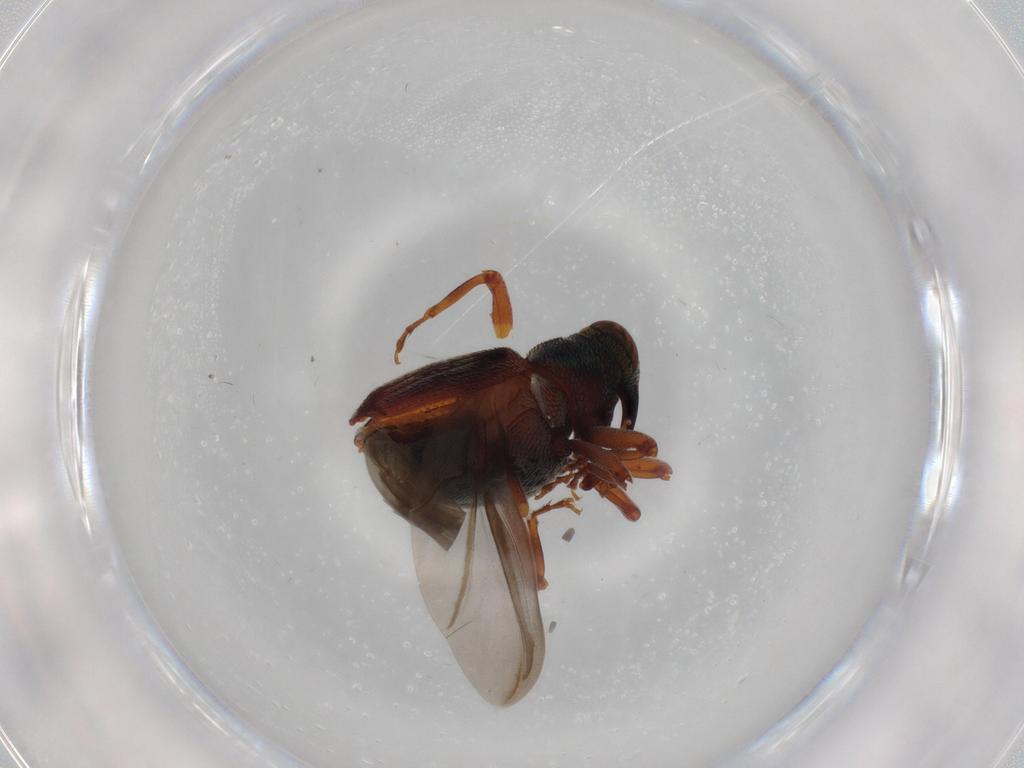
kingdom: Animalia
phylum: Arthropoda
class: Insecta
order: Coleoptera
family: Curculionidae
